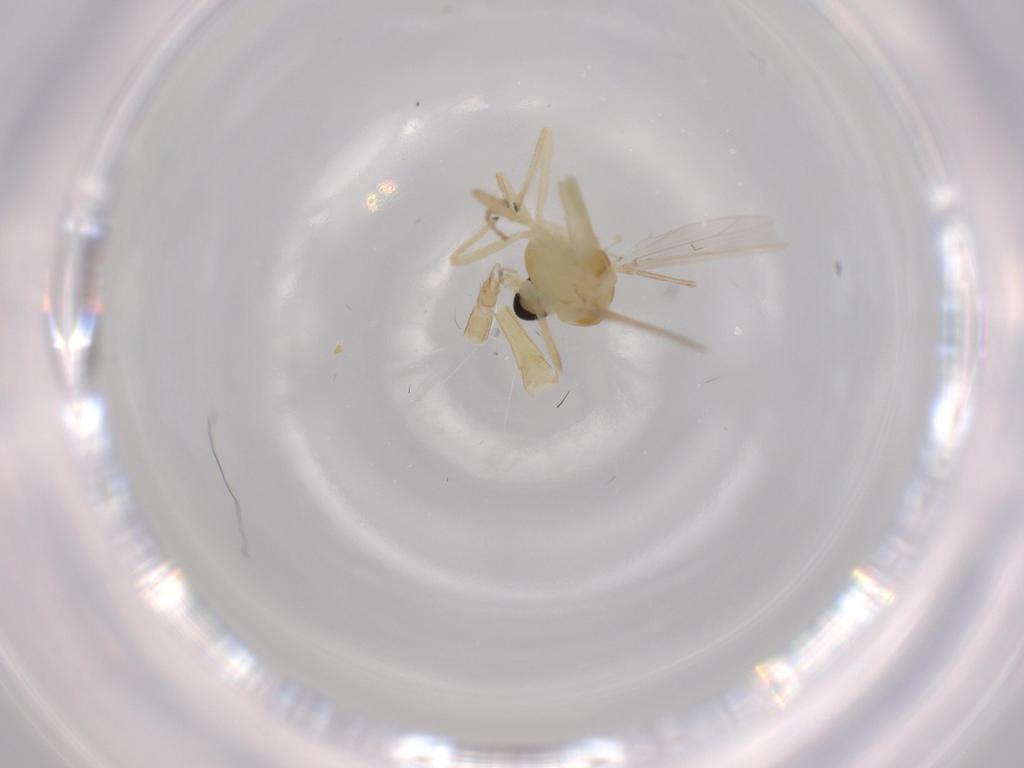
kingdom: Animalia
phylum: Arthropoda
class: Insecta
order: Diptera
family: Chironomidae
